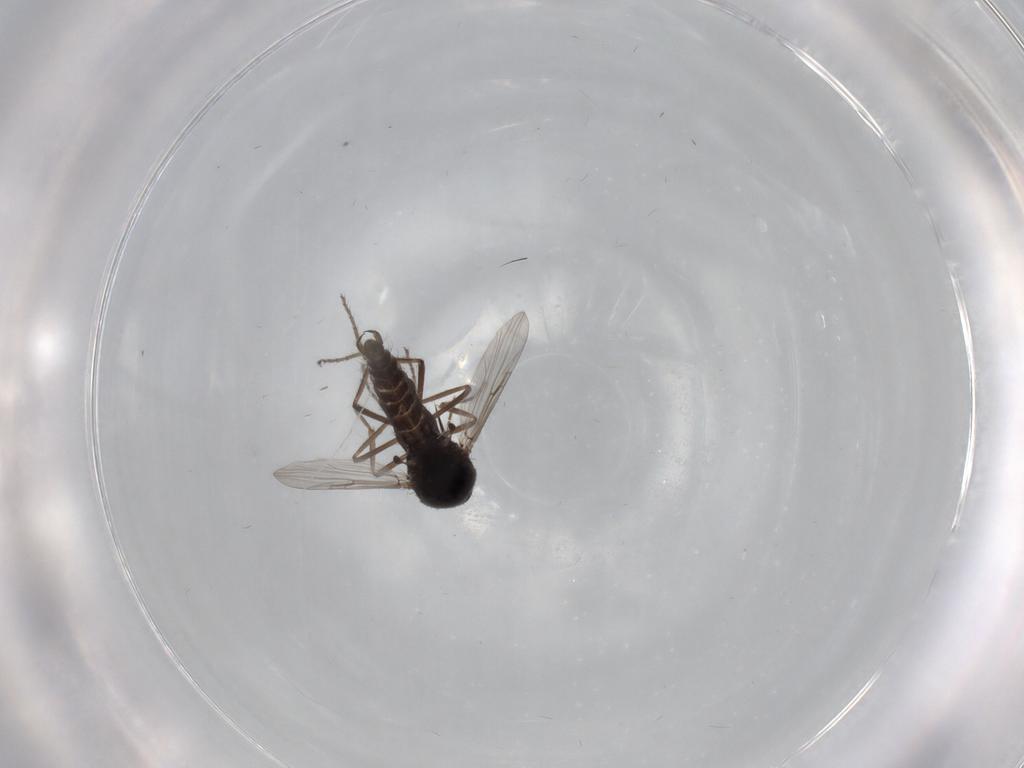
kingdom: Animalia
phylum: Arthropoda
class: Insecta
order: Diptera
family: Ceratopogonidae
